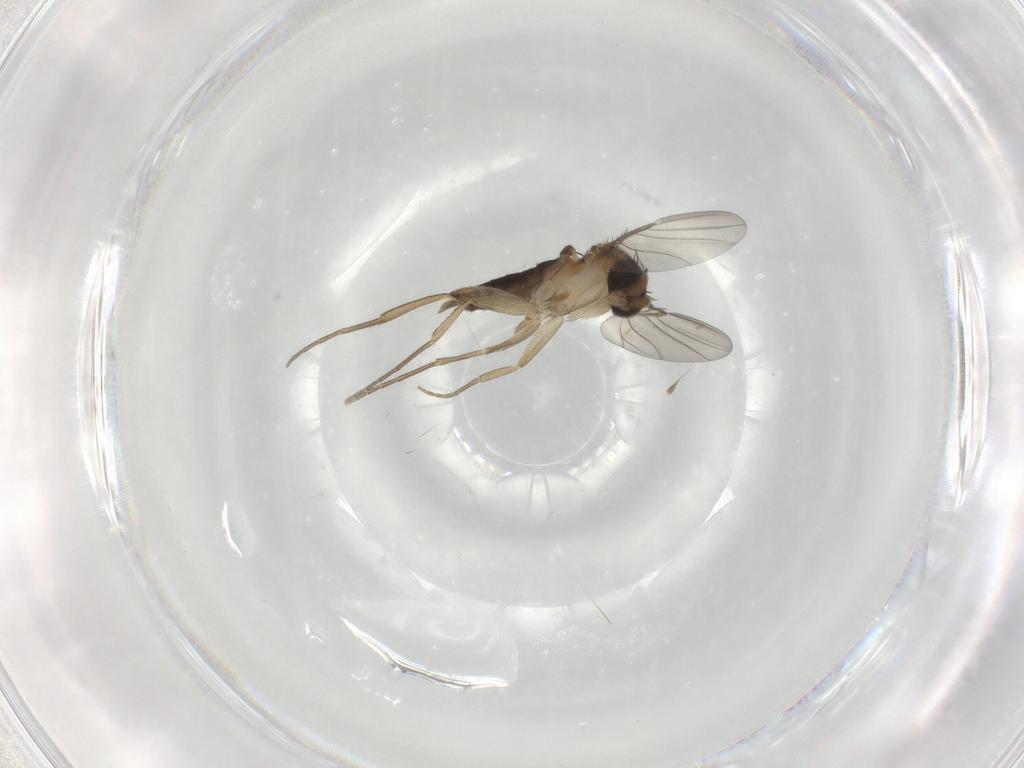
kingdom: Animalia
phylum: Arthropoda
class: Insecta
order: Diptera
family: Phoridae
